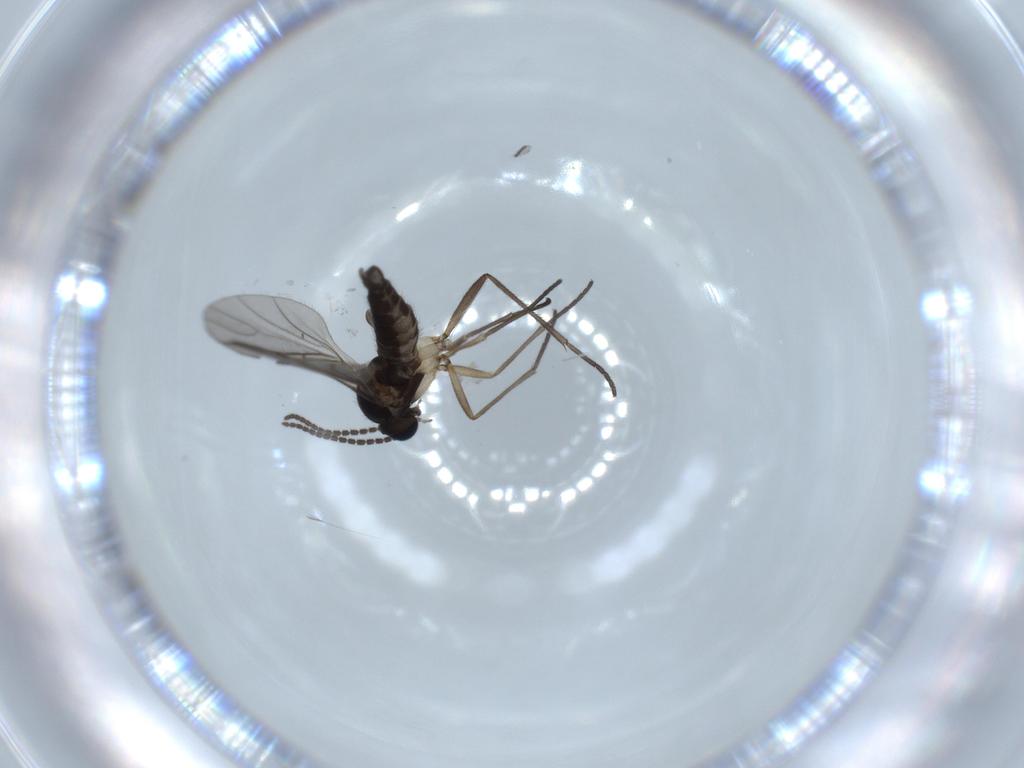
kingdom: Animalia
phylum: Arthropoda
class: Insecta
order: Diptera
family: Sciaridae
